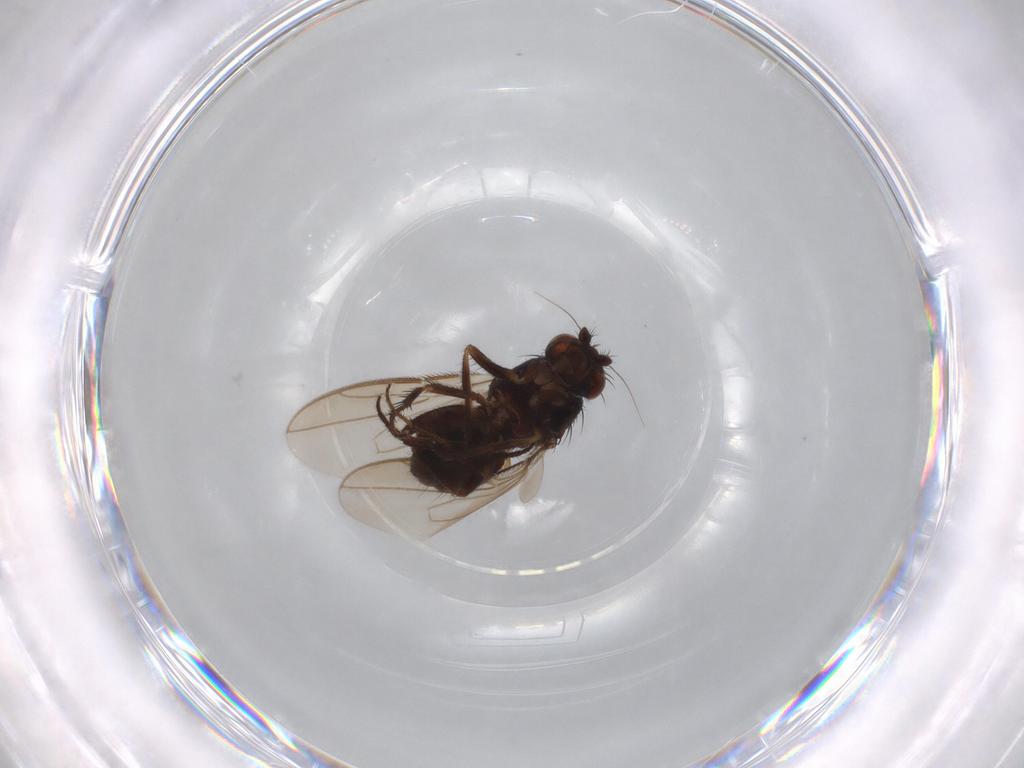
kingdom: Animalia
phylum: Arthropoda
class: Insecta
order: Diptera
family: Sphaeroceridae
